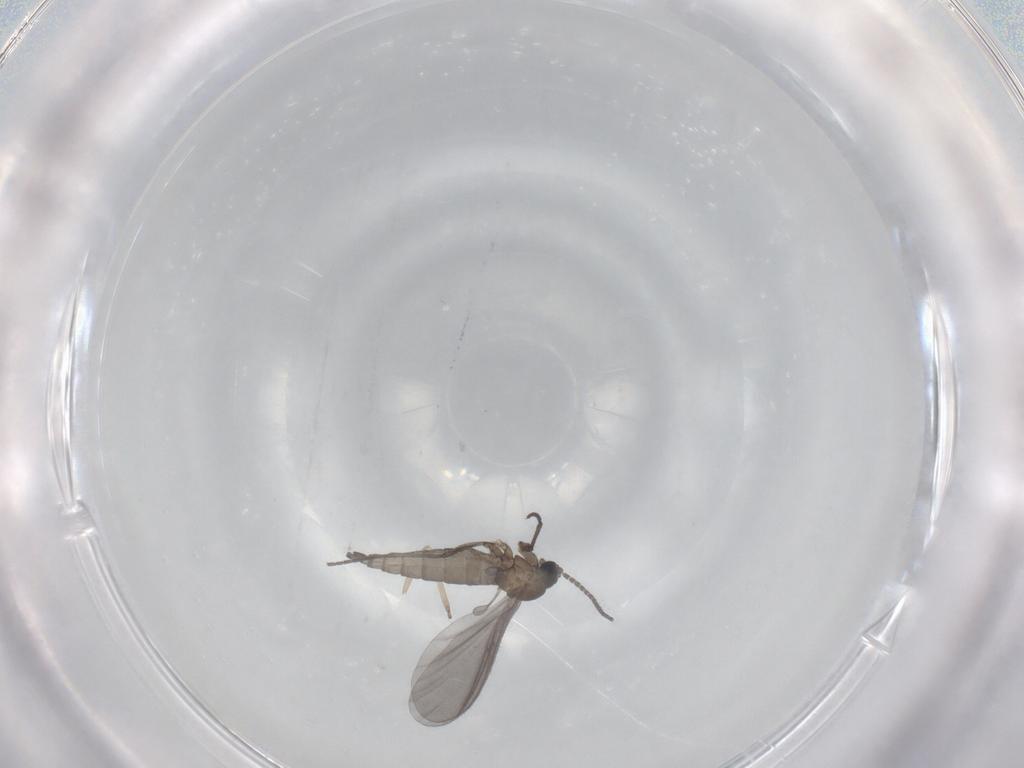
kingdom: Animalia
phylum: Arthropoda
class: Insecta
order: Diptera
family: Sciaridae
